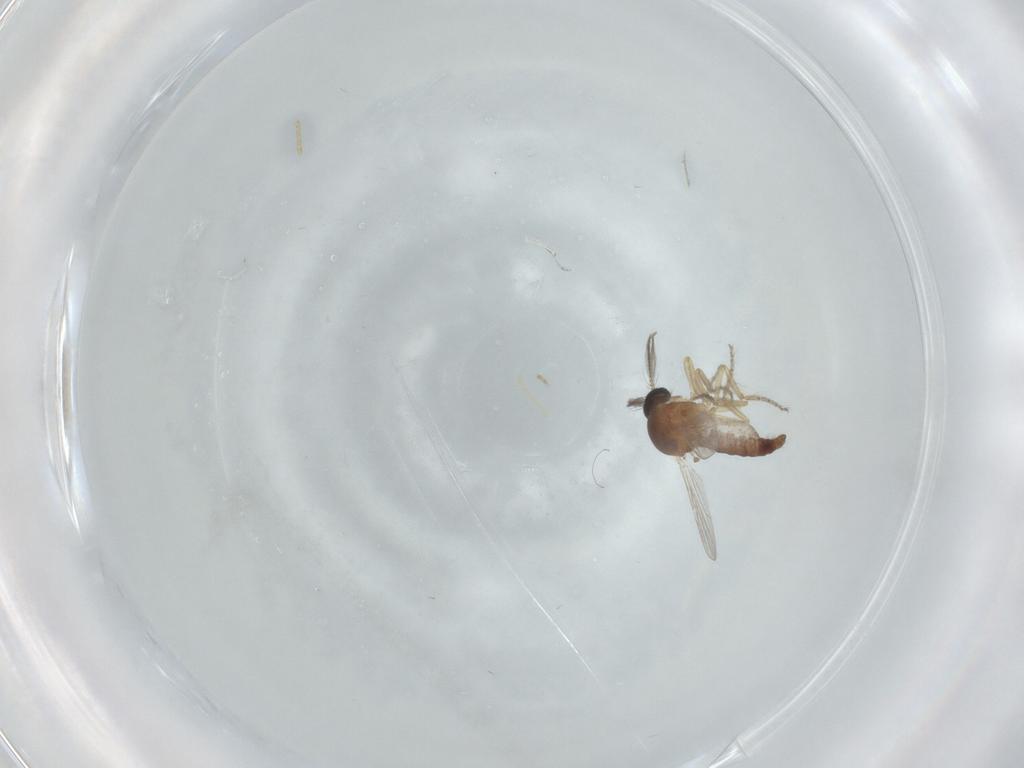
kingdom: Animalia
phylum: Arthropoda
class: Insecta
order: Diptera
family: Ceratopogonidae
